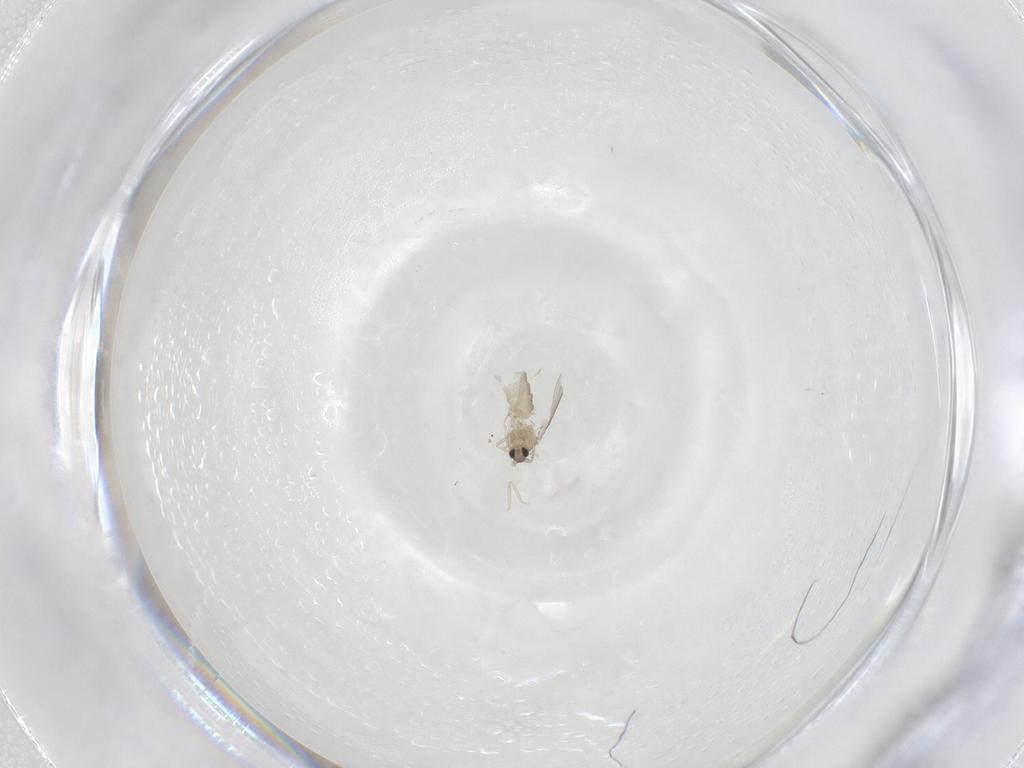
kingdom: Animalia
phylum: Arthropoda
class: Insecta
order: Diptera
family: Cecidomyiidae
